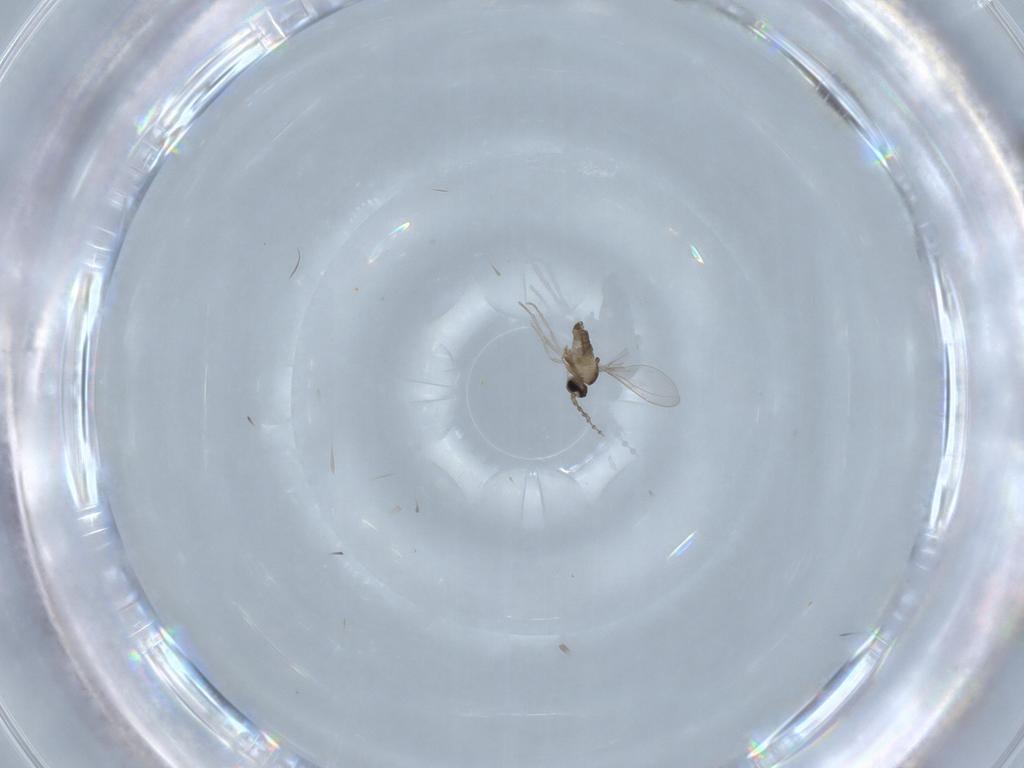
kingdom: Animalia
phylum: Arthropoda
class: Insecta
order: Diptera
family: Cecidomyiidae
